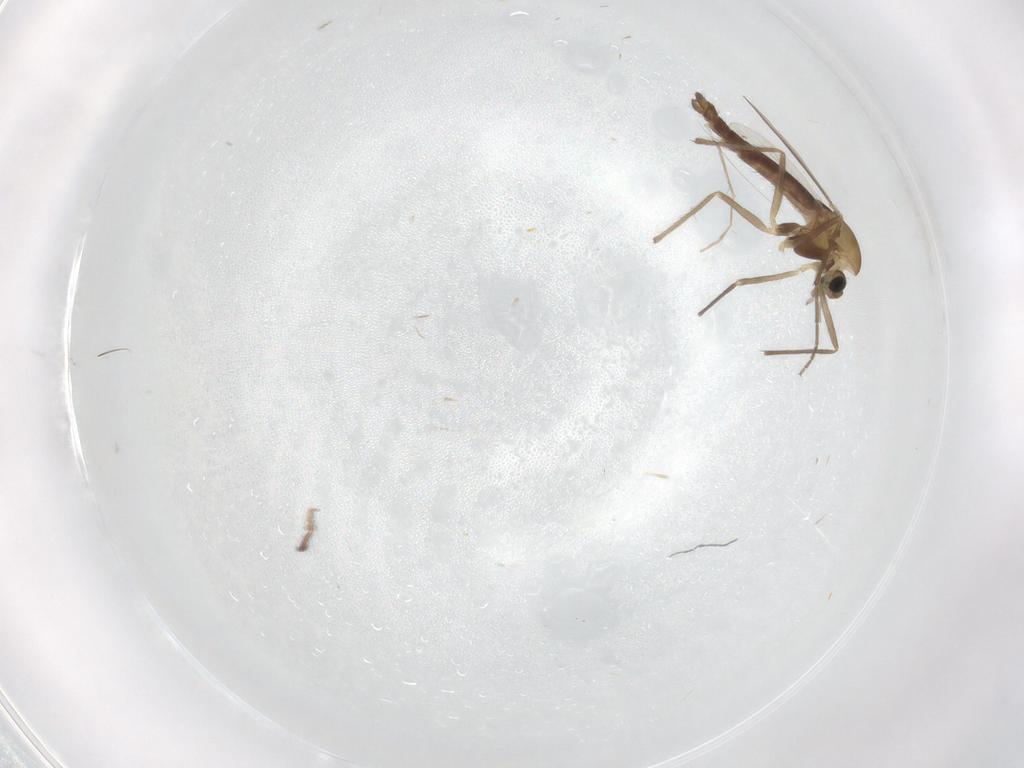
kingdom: Animalia
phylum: Arthropoda
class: Insecta
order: Diptera
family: Chironomidae
